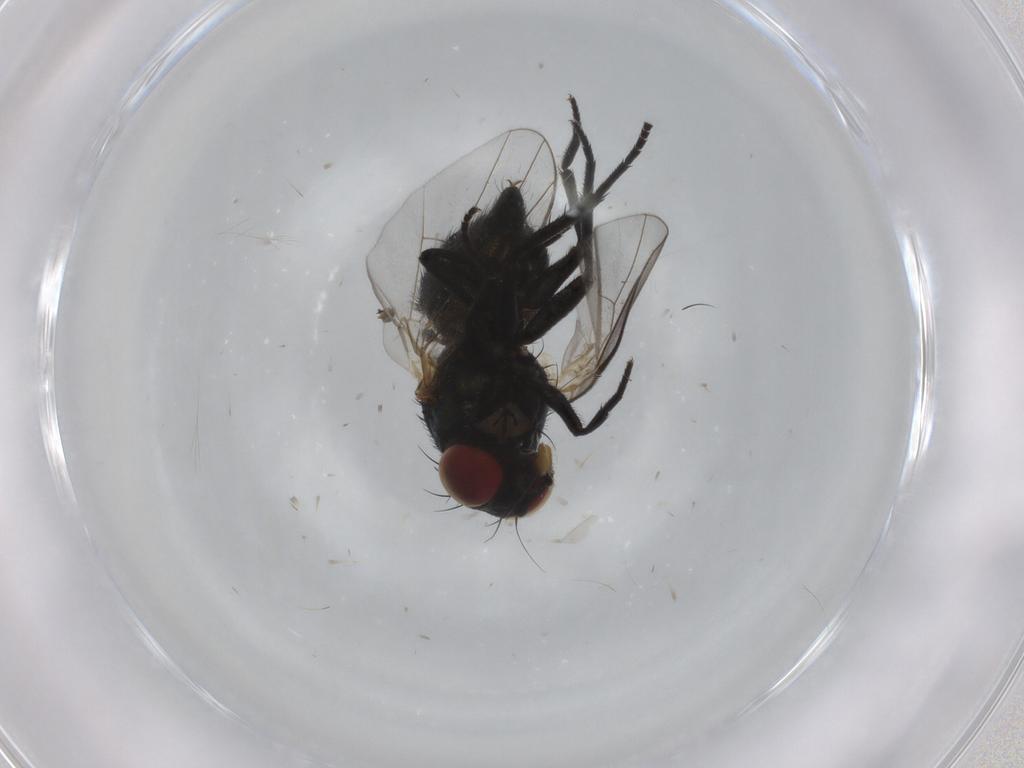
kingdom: Animalia
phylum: Arthropoda
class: Insecta
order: Diptera
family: Agromyzidae
